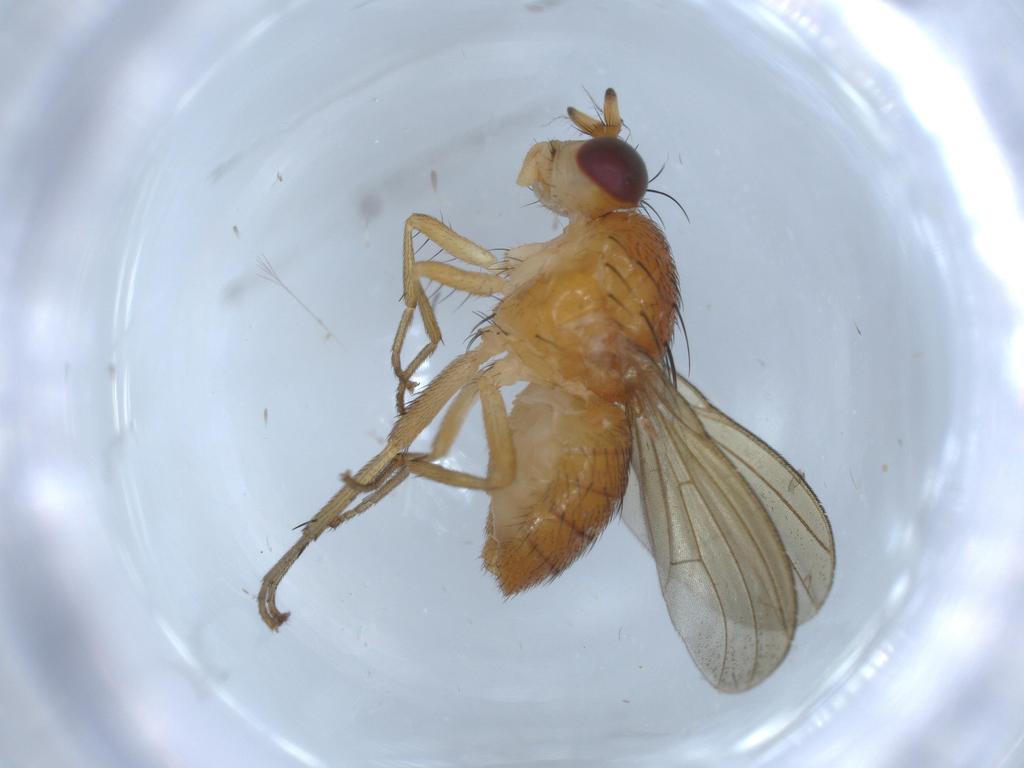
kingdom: Animalia
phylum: Arthropoda
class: Insecta
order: Diptera
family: Lauxaniidae
